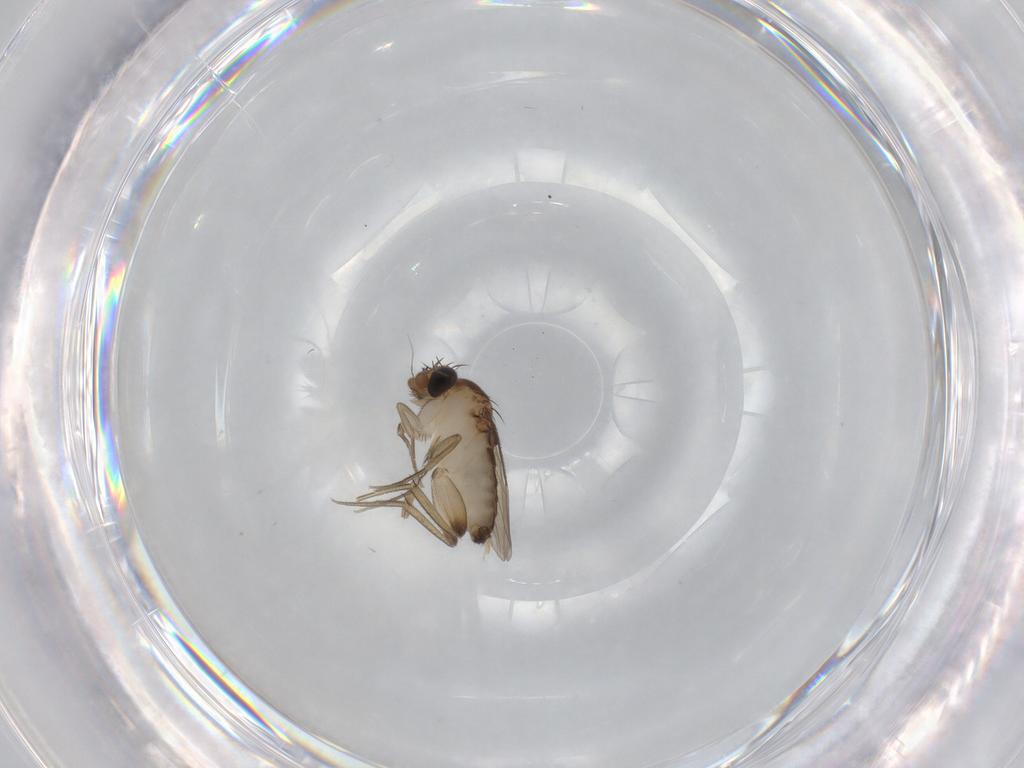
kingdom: Animalia
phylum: Arthropoda
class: Insecta
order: Diptera
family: Phoridae
